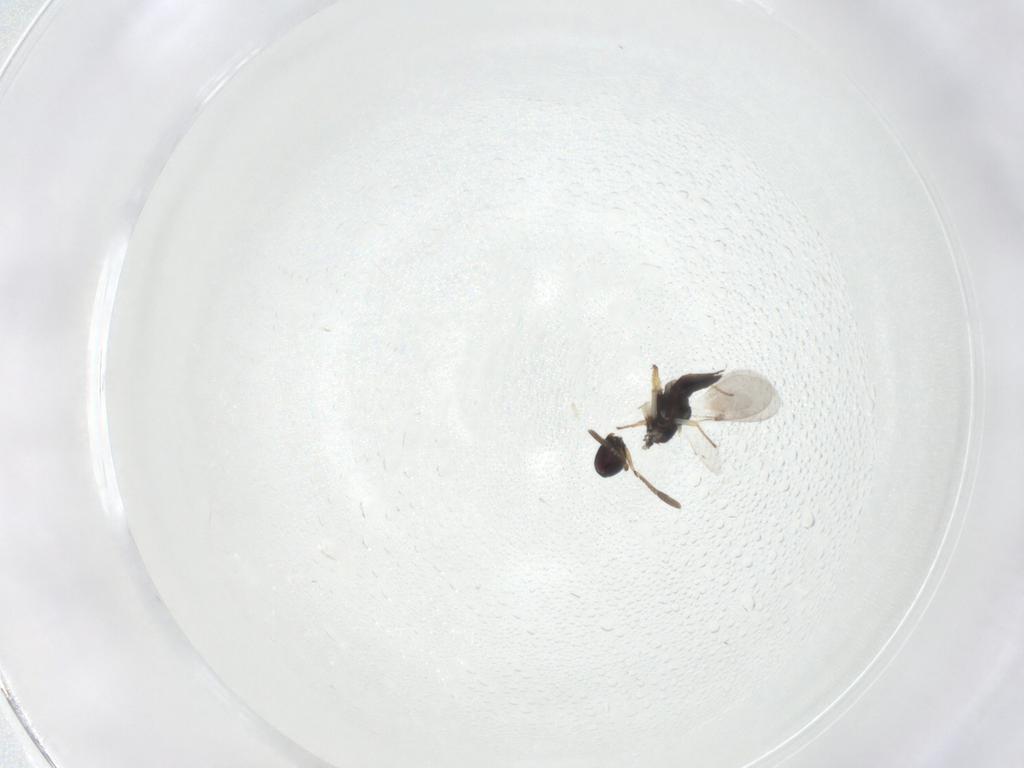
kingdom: Animalia
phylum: Arthropoda
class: Insecta
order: Hymenoptera
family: Encyrtidae
